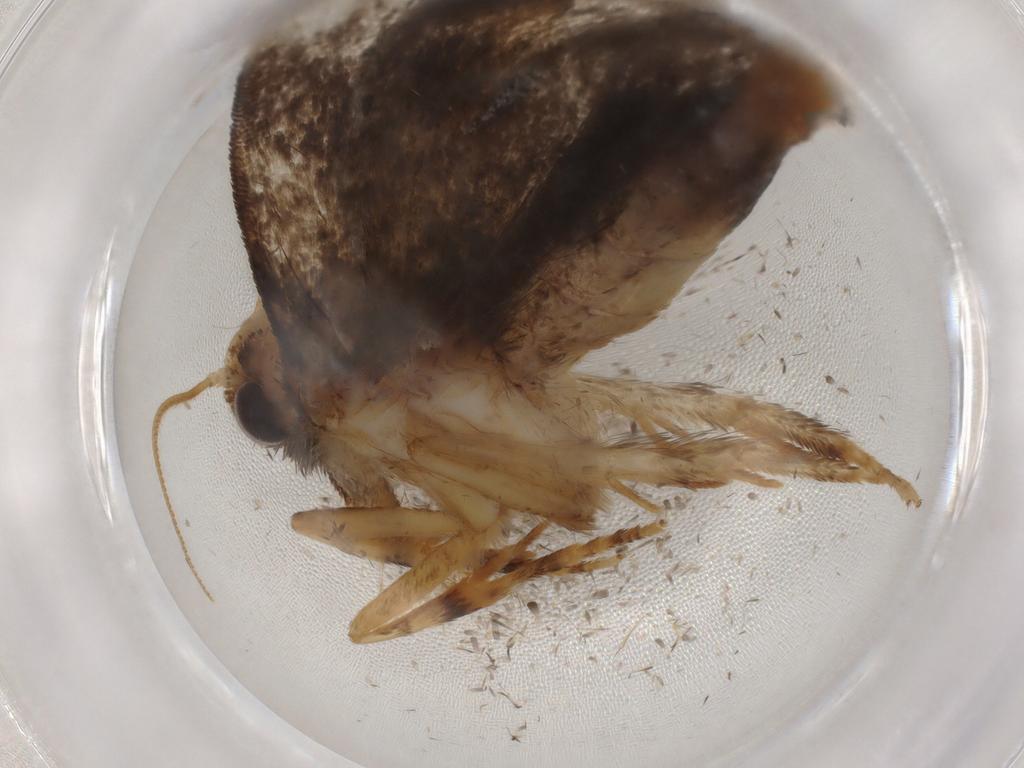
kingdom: Animalia
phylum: Arthropoda
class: Insecta
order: Lepidoptera
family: Tineidae
